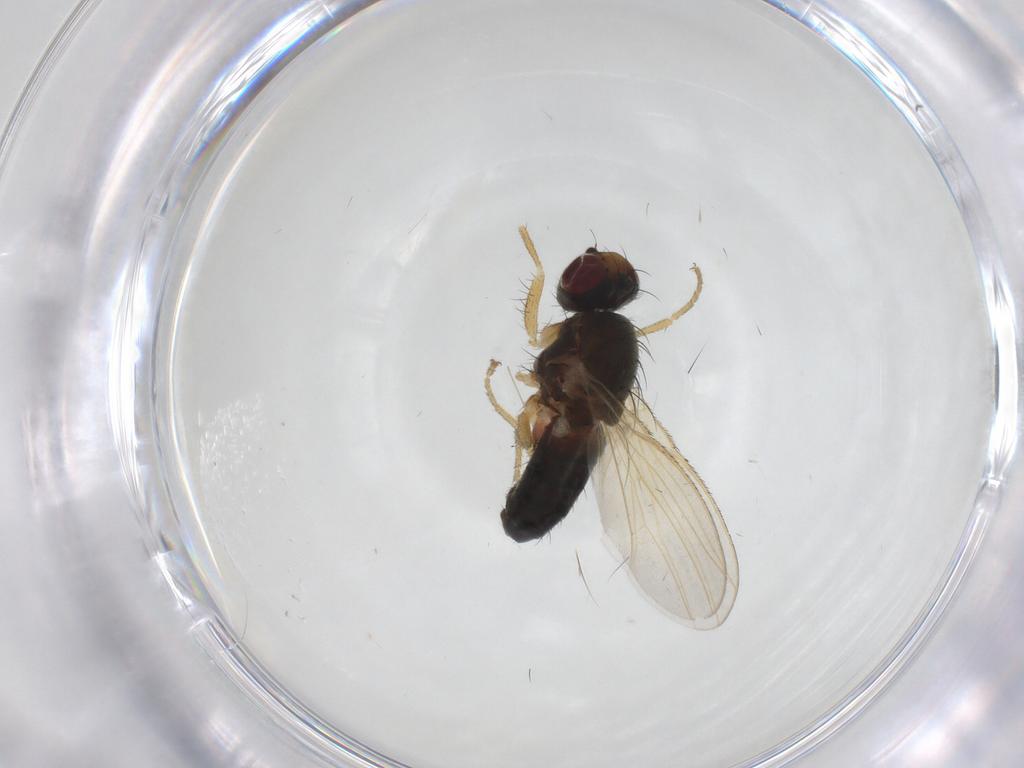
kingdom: Animalia
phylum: Arthropoda
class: Insecta
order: Diptera
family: Heleomyzidae
